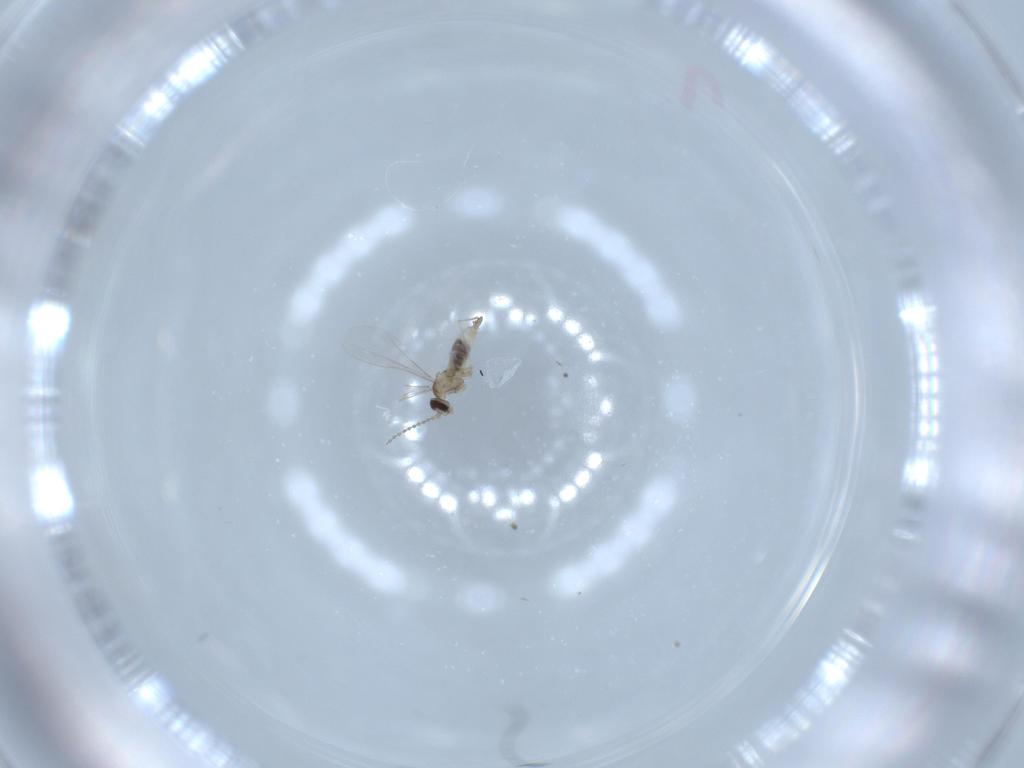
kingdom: Animalia
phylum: Arthropoda
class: Insecta
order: Diptera
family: Cecidomyiidae
